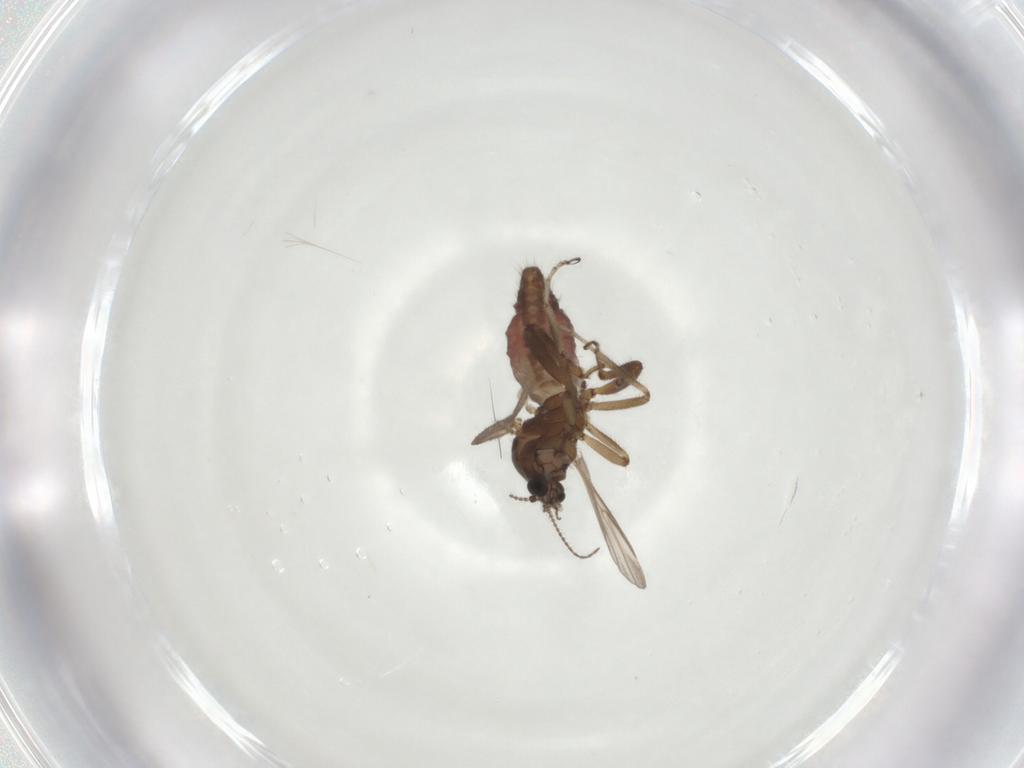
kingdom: Animalia
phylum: Arthropoda
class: Insecta
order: Diptera
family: Ceratopogonidae
